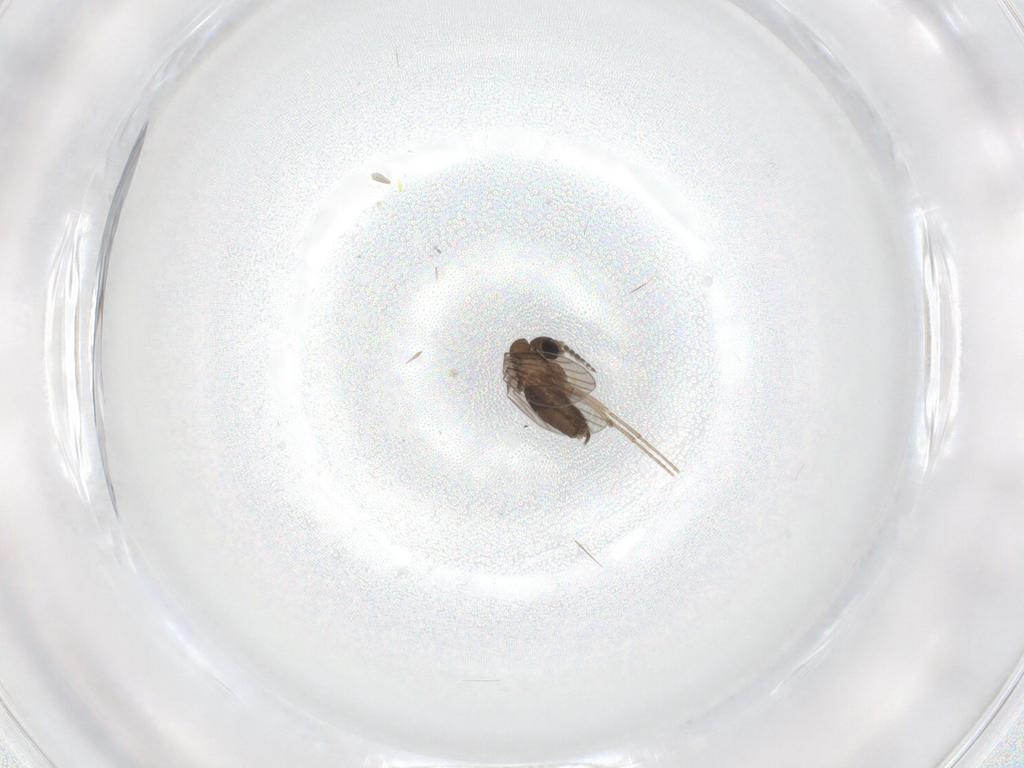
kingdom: Animalia
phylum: Arthropoda
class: Insecta
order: Diptera
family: Cecidomyiidae
